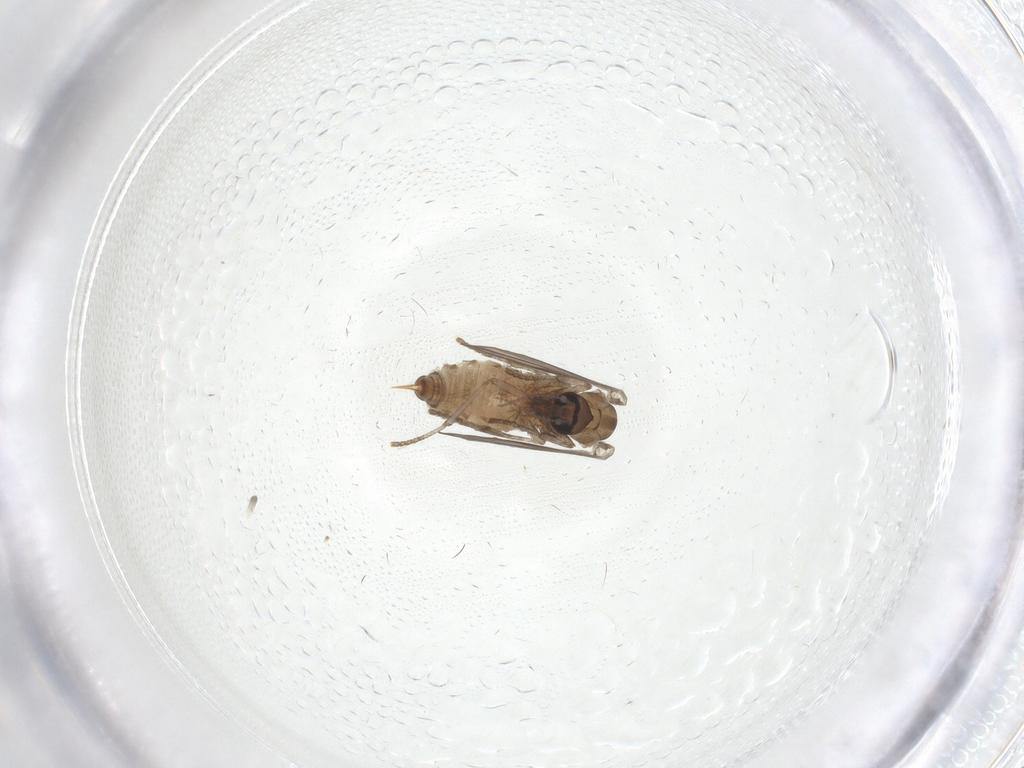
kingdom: Animalia
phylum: Arthropoda
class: Insecta
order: Diptera
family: Psychodidae
